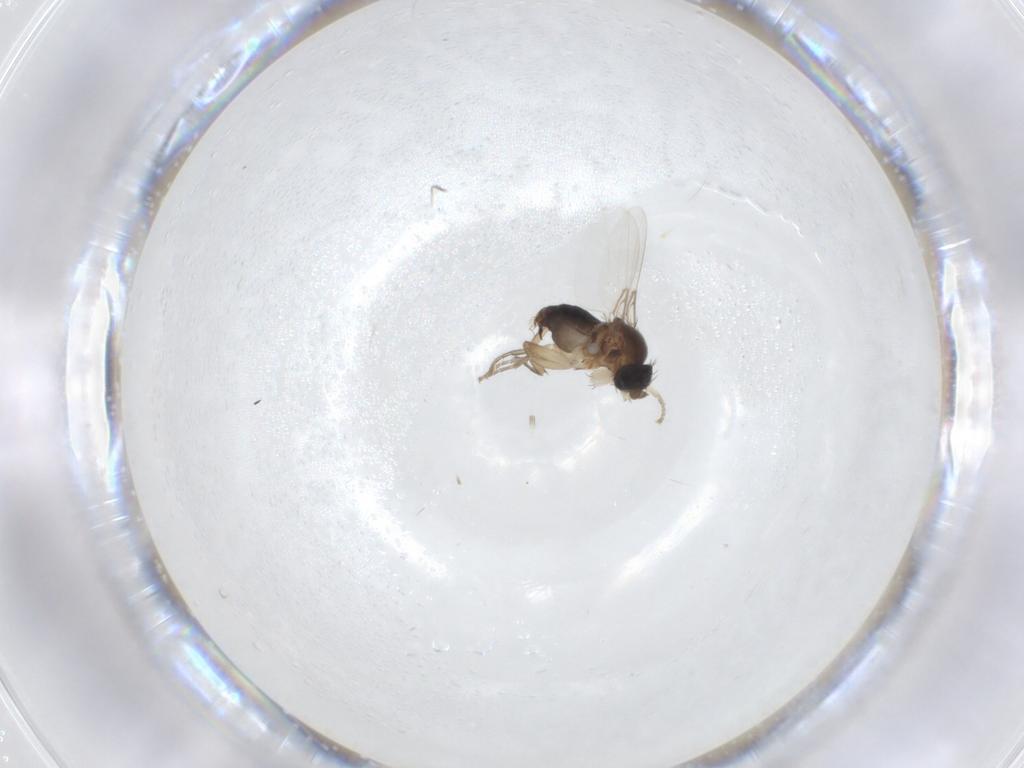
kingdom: Animalia
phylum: Arthropoda
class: Insecta
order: Diptera
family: Phoridae
